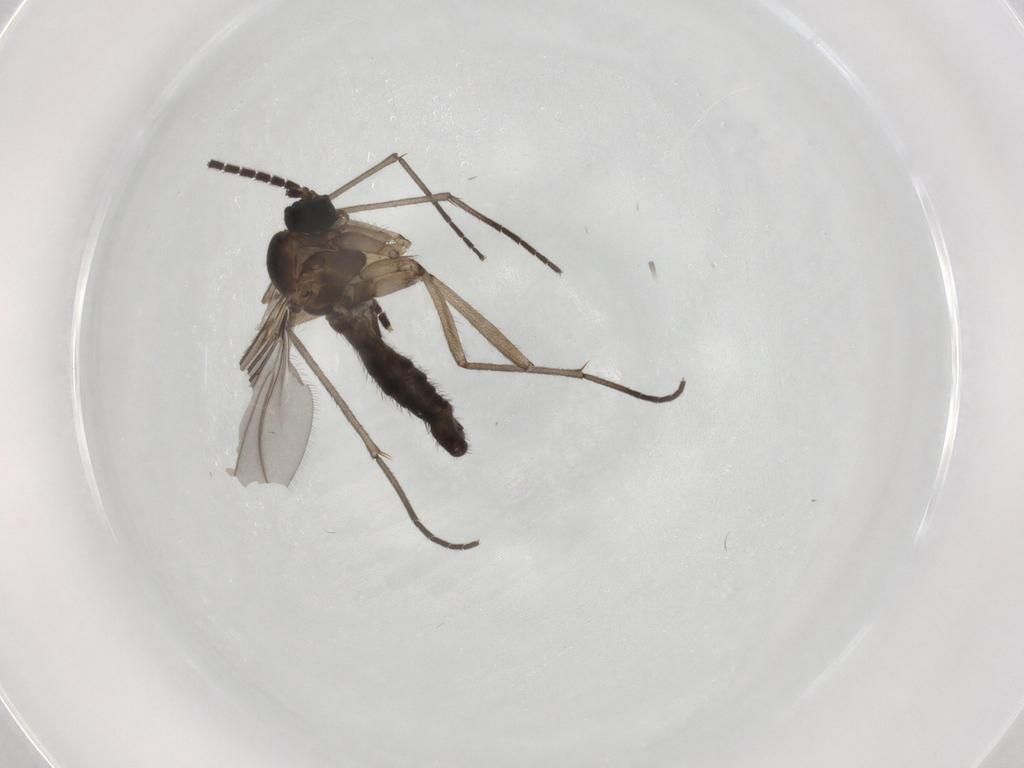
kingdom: Animalia
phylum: Arthropoda
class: Insecta
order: Diptera
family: Sciaridae
